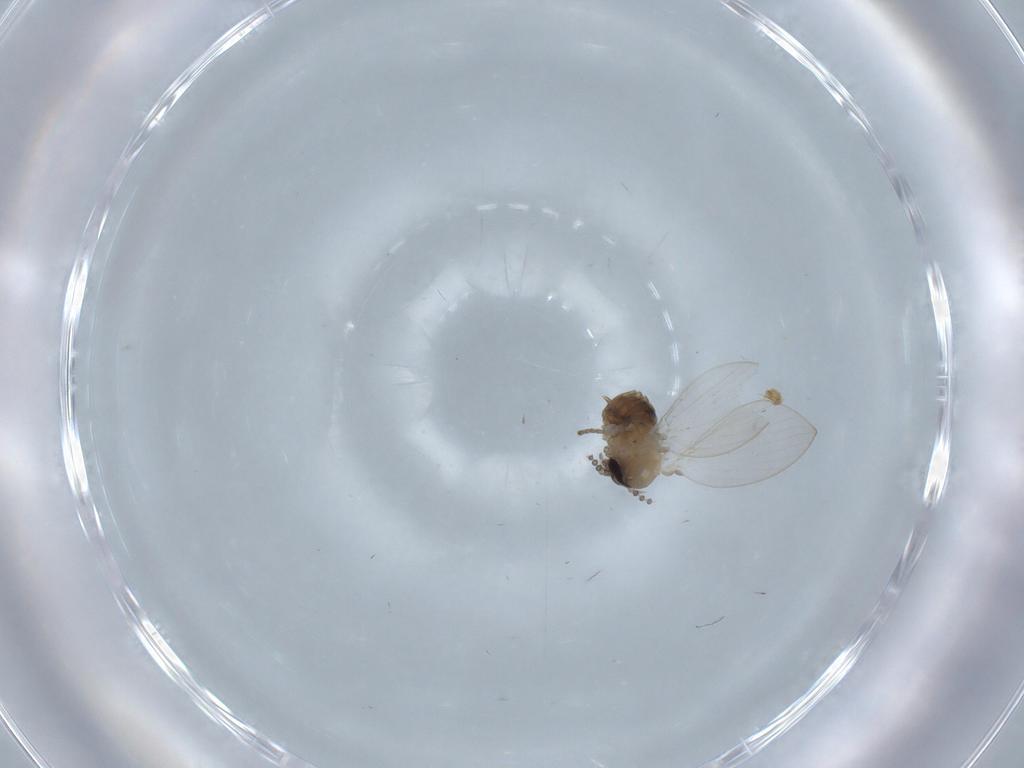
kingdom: Animalia
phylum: Arthropoda
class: Insecta
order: Diptera
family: Psychodidae
